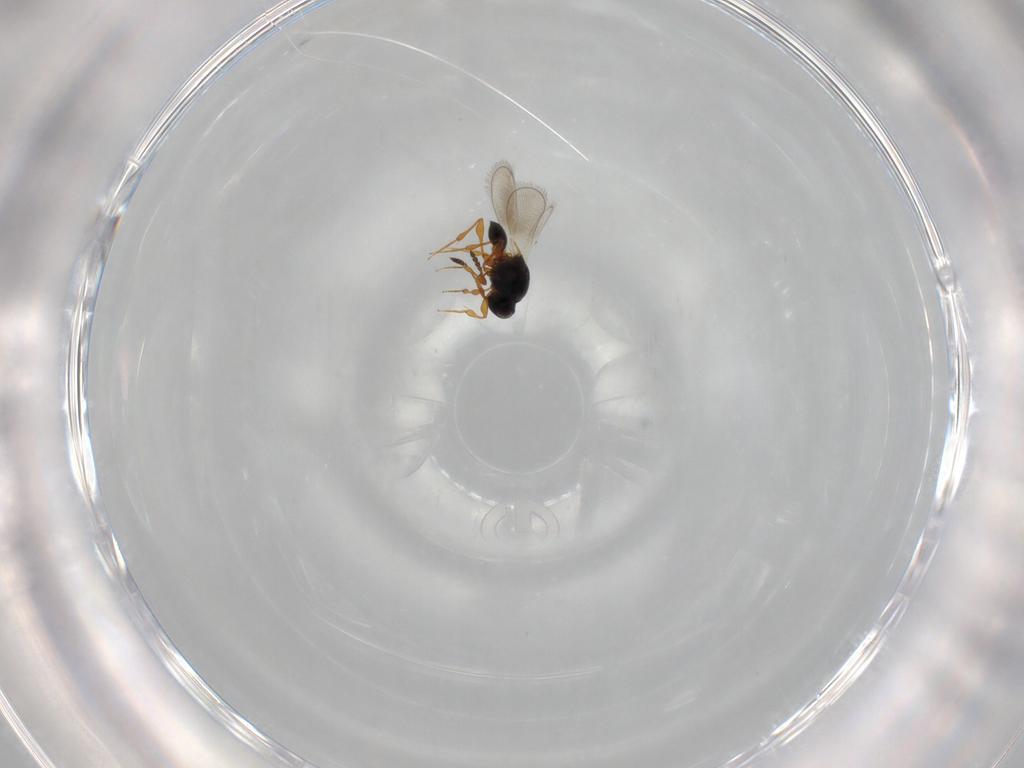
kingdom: Animalia
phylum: Arthropoda
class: Insecta
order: Hymenoptera
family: Platygastridae
